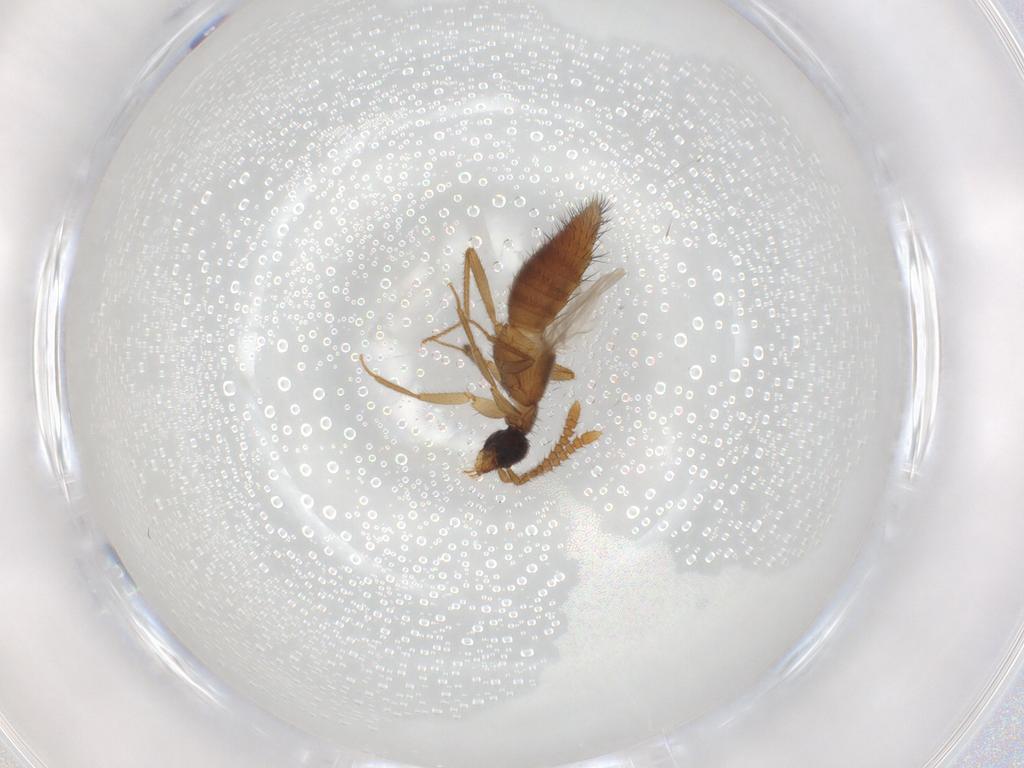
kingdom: Animalia
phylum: Arthropoda
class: Insecta
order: Coleoptera
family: Staphylinidae
